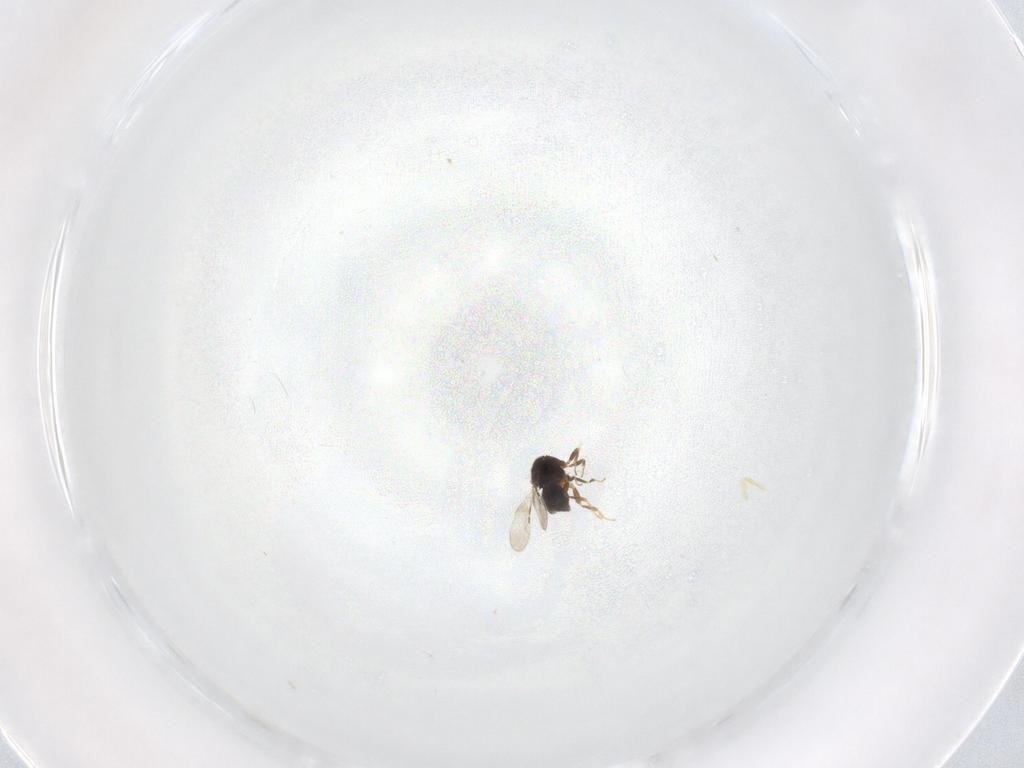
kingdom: Animalia
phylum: Arthropoda
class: Insecta
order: Hymenoptera
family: Ceraphronidae
